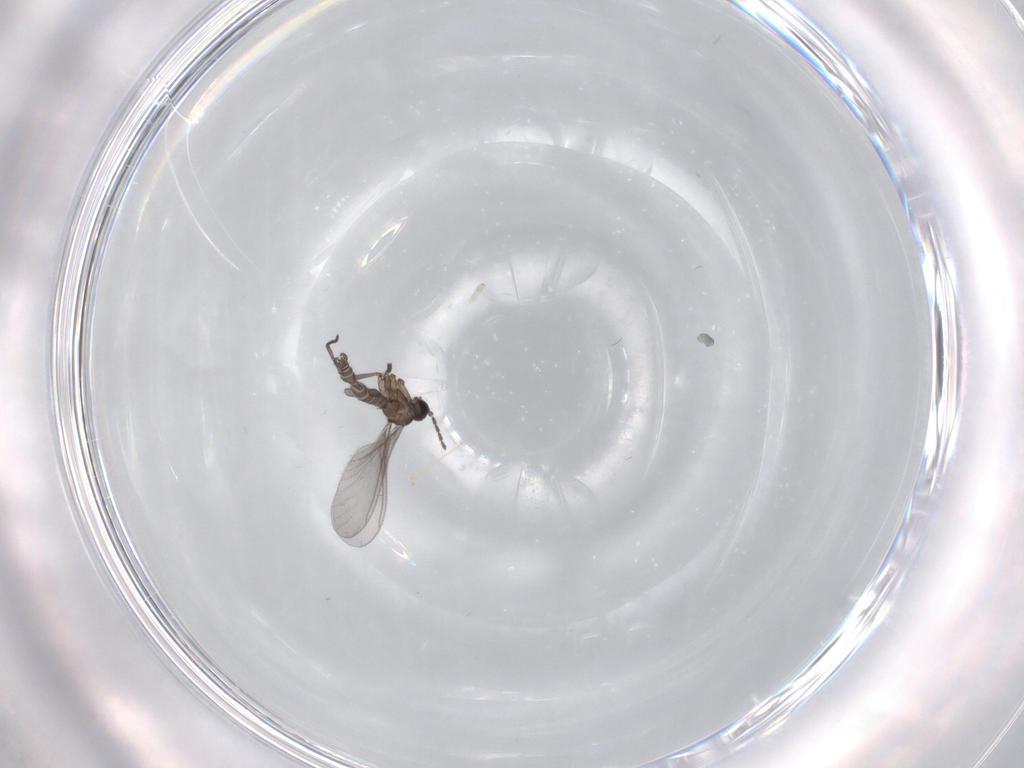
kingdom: Animalia
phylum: Arthropoda
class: Insecta
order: Diptera
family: Sciaridae
